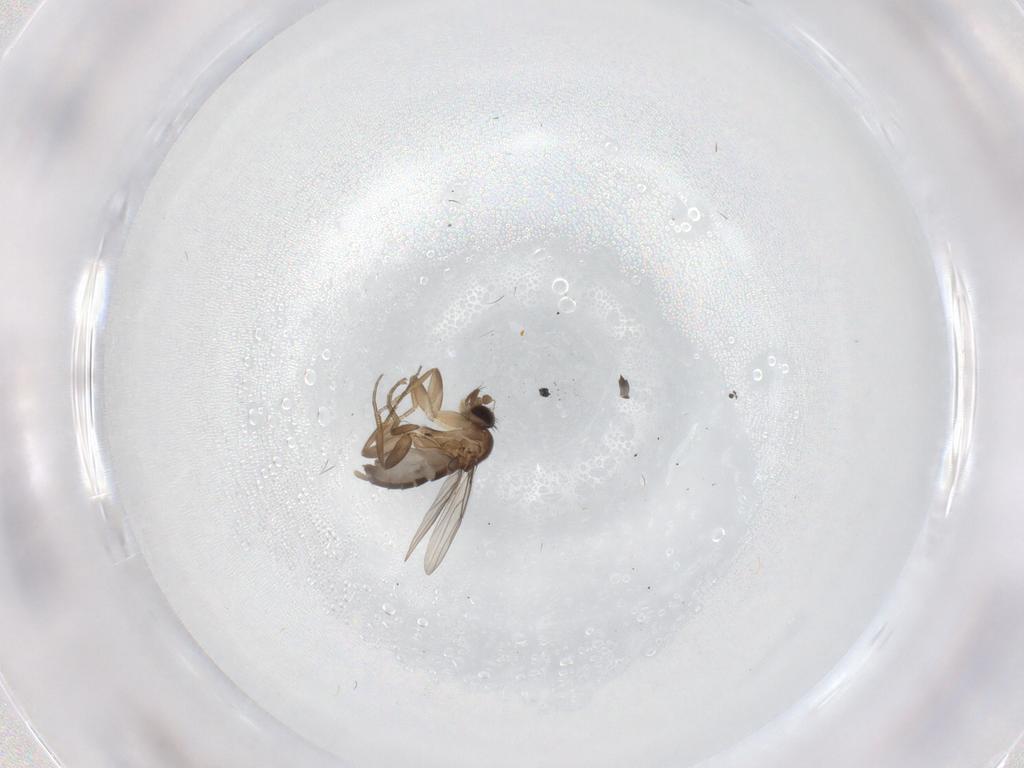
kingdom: Animalia
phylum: Arthropoda
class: Insecta
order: Diptera
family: Phoridae
